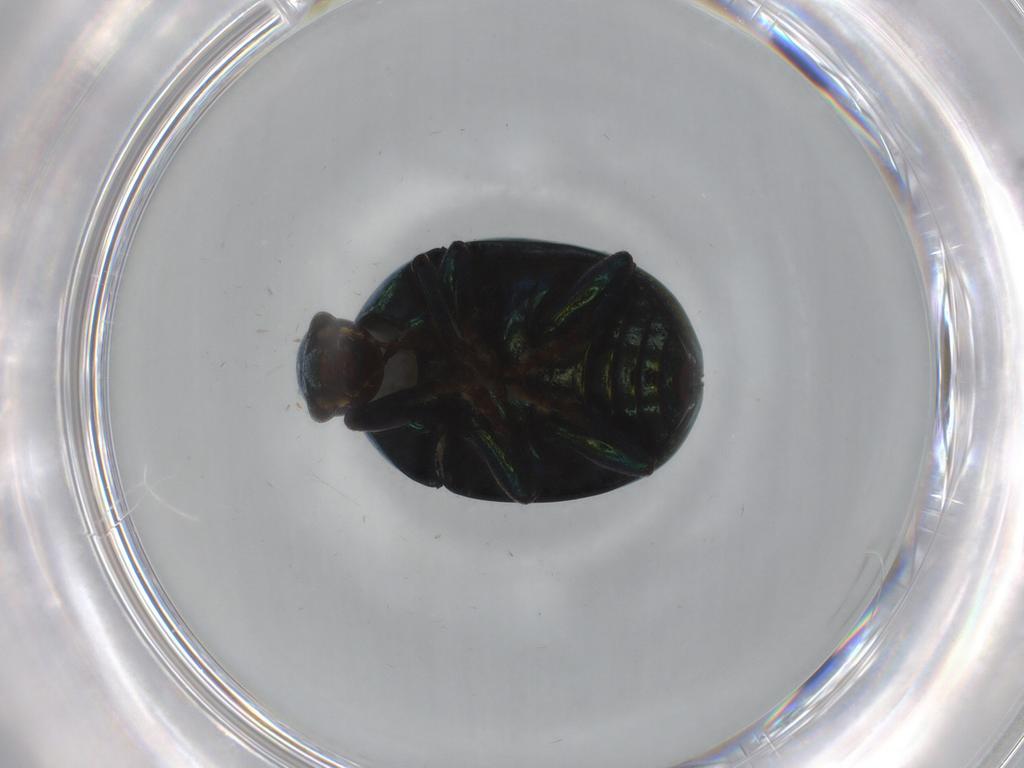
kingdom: Animalia
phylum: Arthropoda
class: Insecta
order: Coleoptera
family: Chrysomelidae
